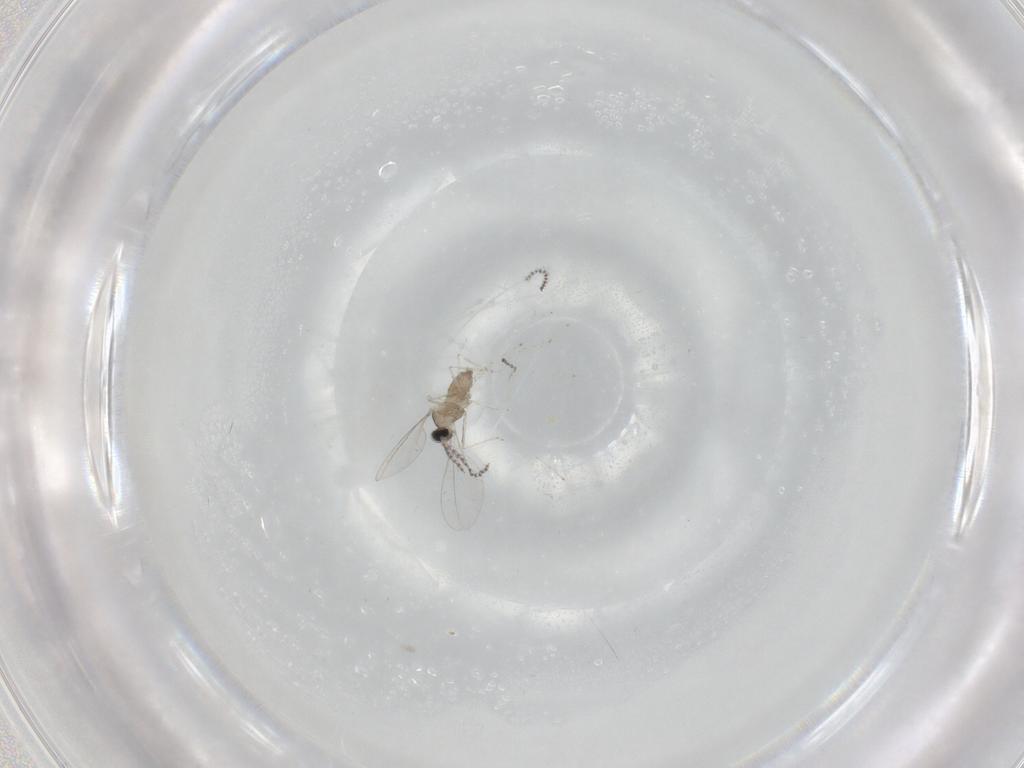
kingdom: Animalia
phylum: Arthropoda
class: Insecta
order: Diptera
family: Cecidomyiidae
